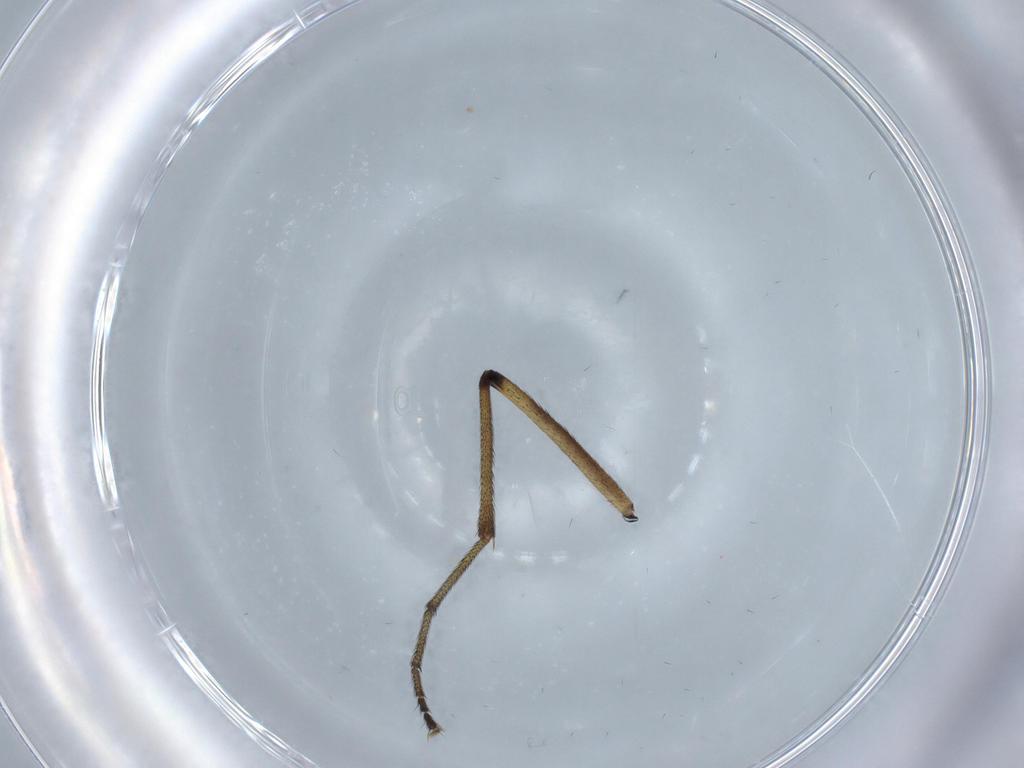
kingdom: Animalia
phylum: Arthropoda
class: Insecta
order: Diptera
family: Anisopodidae
